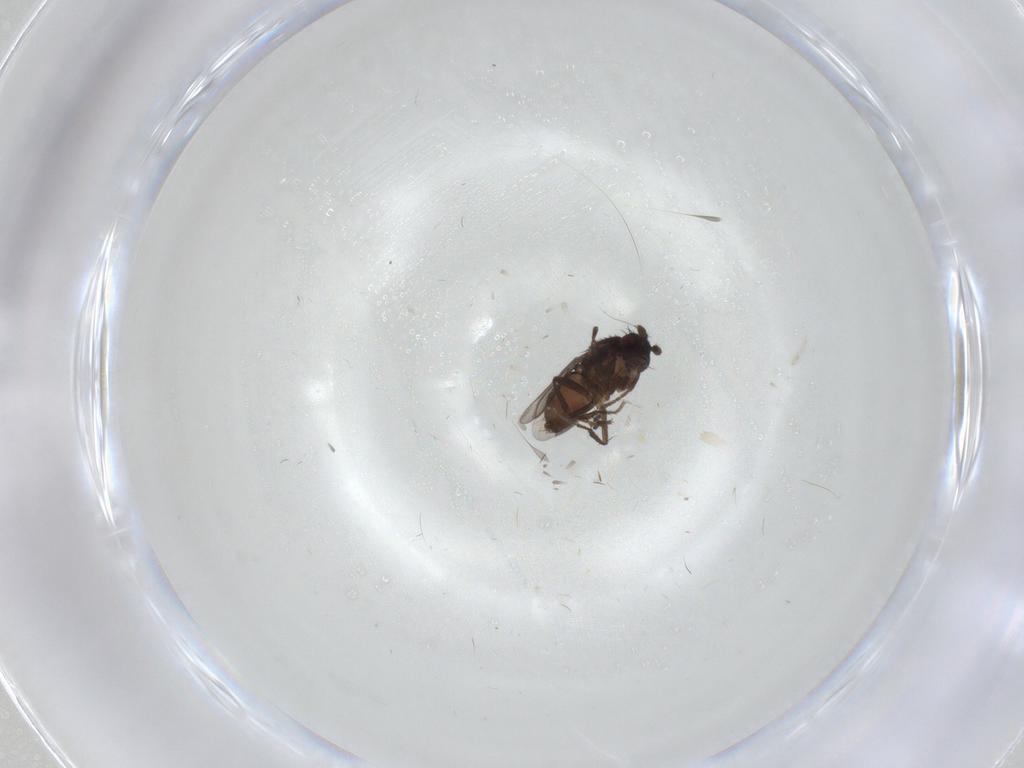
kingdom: Animalia
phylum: Arthropoda
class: Insecta
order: Diptera
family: Sphaeroceridae
